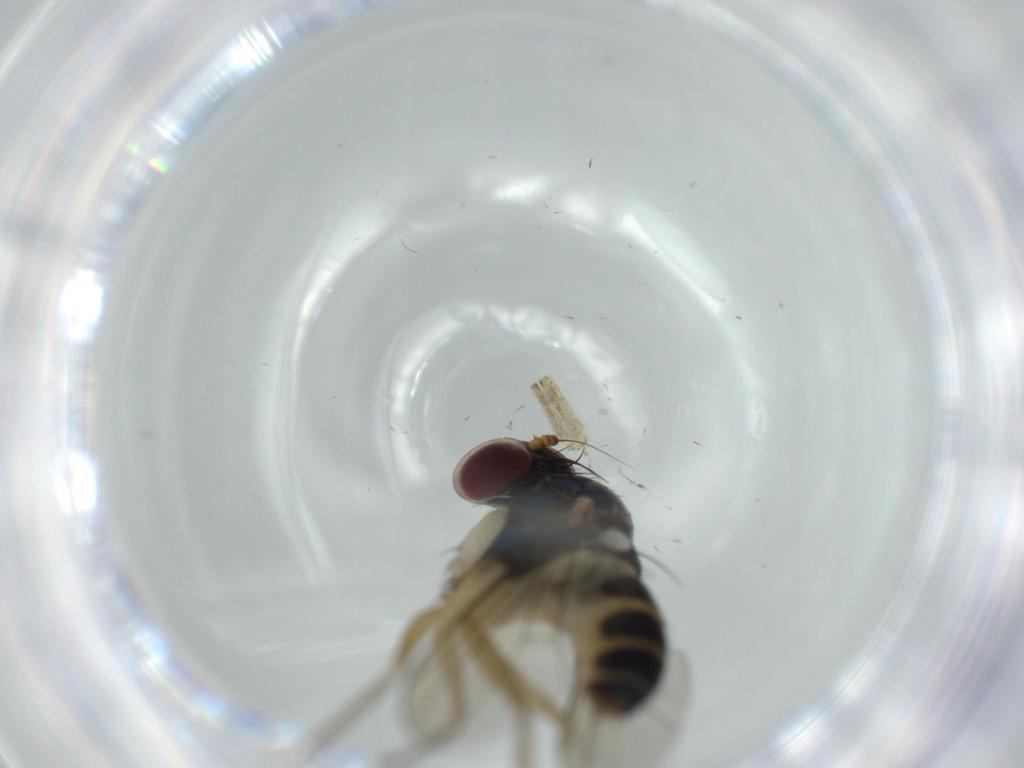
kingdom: Animalia
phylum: Arthropoda
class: Insecta
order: Diptera
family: Dolichopodidae
